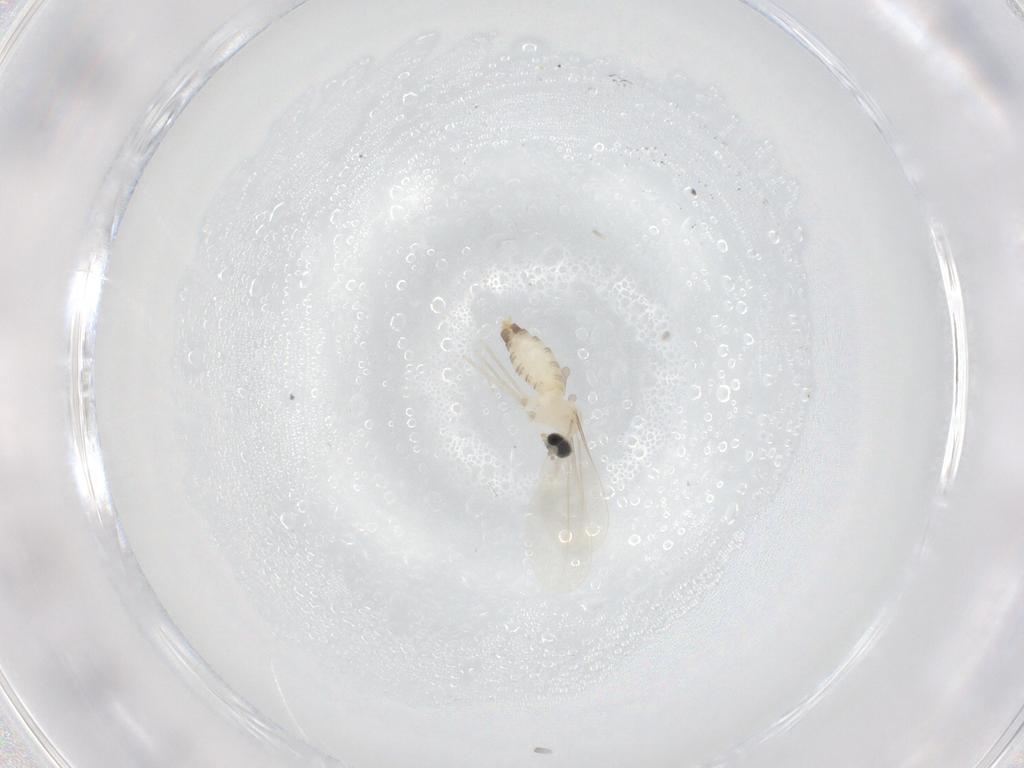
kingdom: Animalia
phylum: Arthropoda
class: Insecta
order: Diptera
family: Cecidomyiidae
